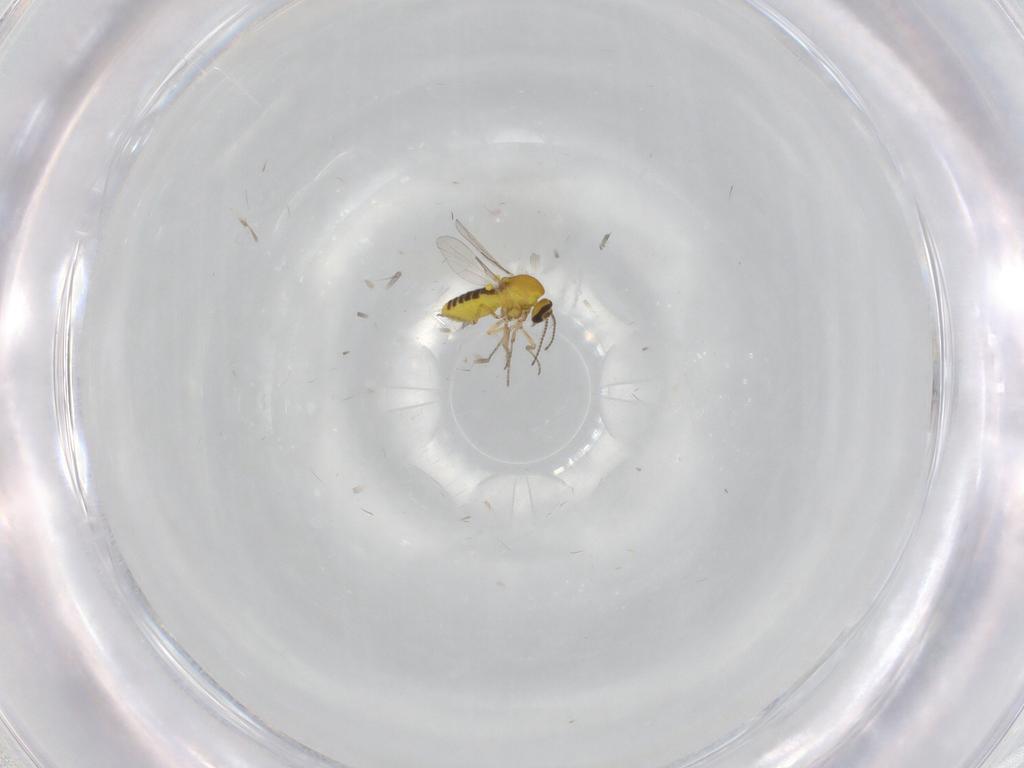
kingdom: Animalia
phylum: Arthropoda
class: Insecta
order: Diptera
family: Ceratopogonidae
